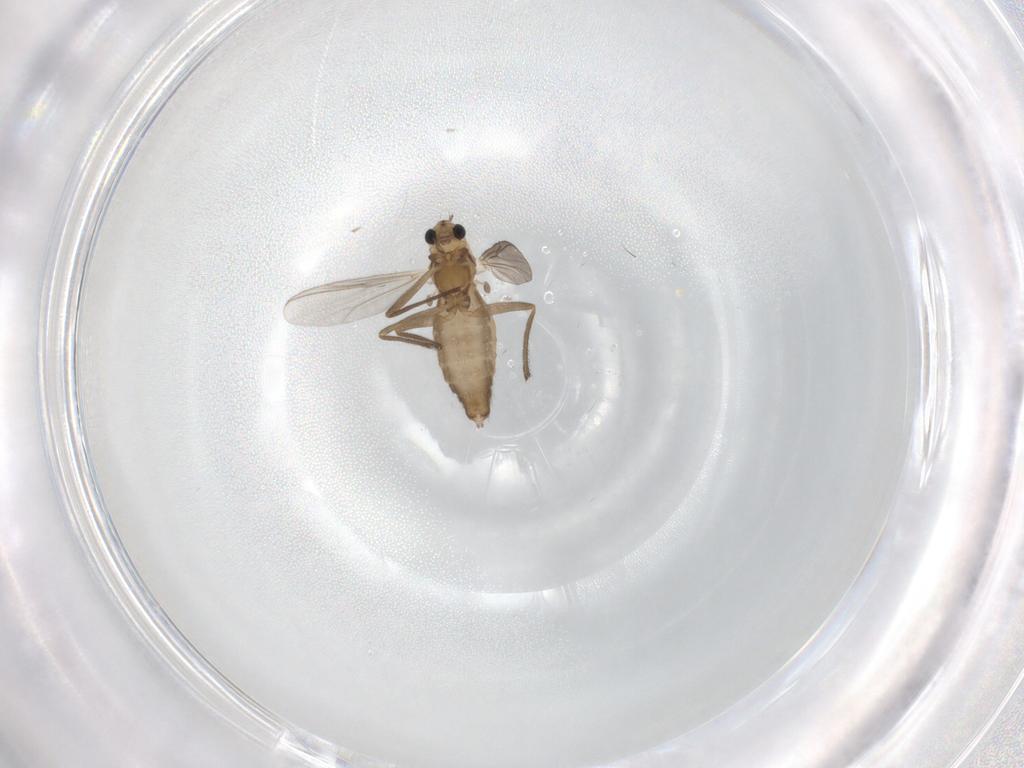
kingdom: Animalia
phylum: Arthropoda
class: Insecta
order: Diptera
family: Chironomidae
